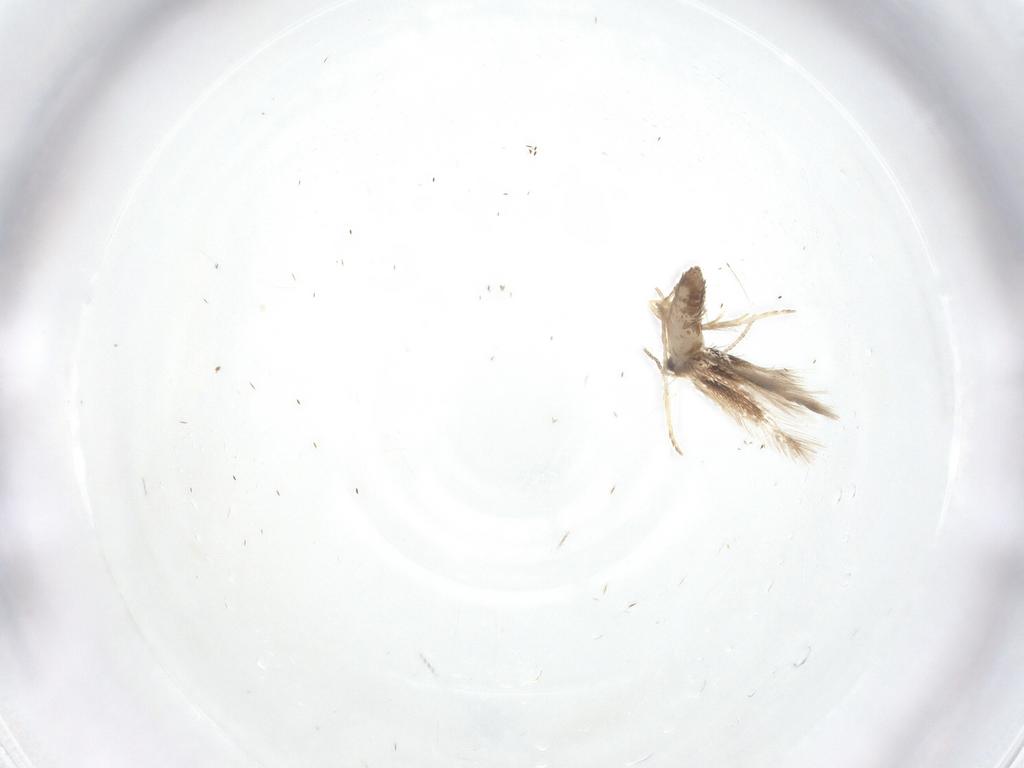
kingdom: Animalia
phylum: Arthropoda
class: Insecta
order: Lepidoptera
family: Nepticulidae
